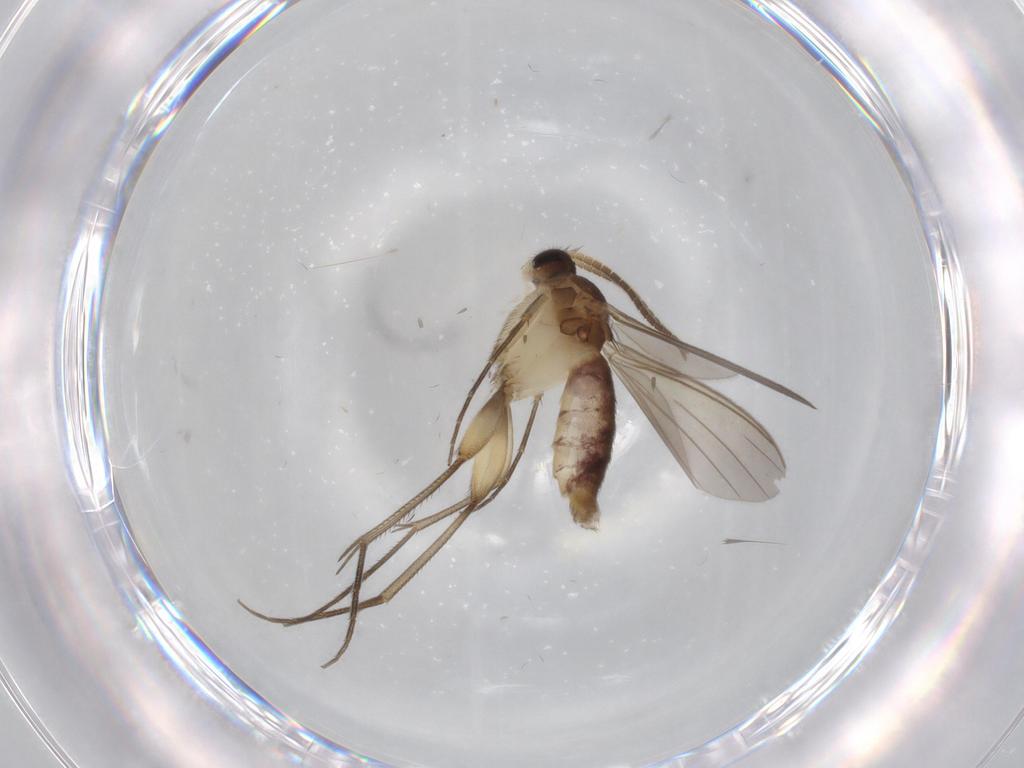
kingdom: Animalia
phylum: Arthropoda
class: Insecta
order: Diptera
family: Mycetophilidae
